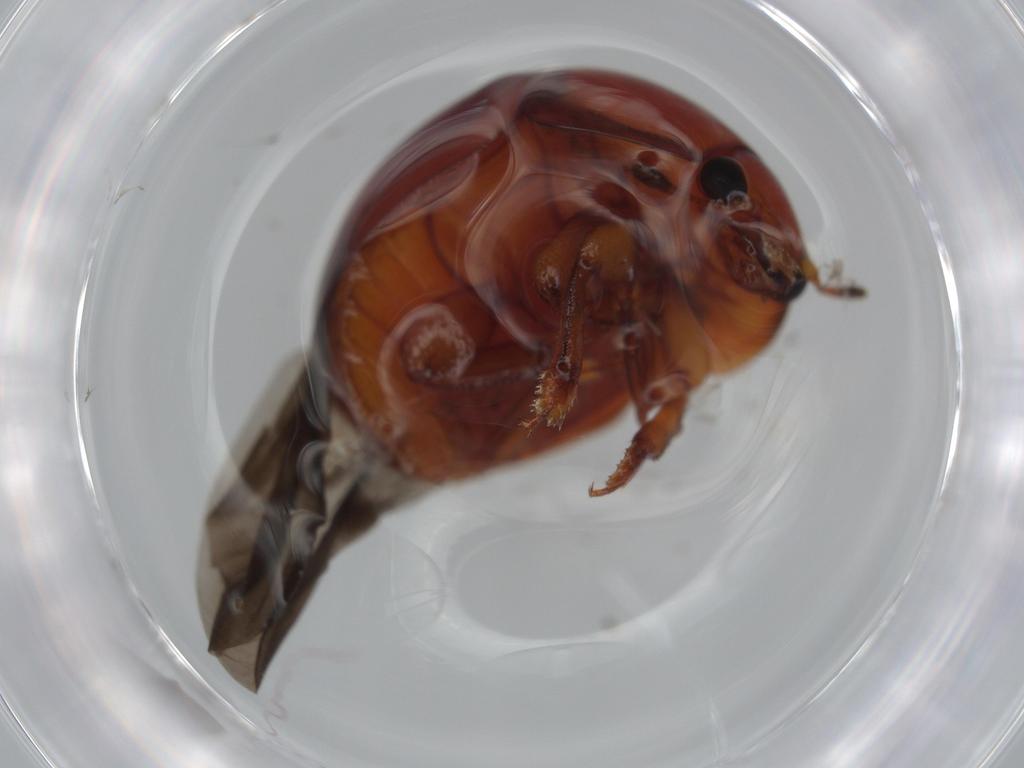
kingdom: Animalia
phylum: Arthropoda
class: Insecta
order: Coleoptera
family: Nitidulidae
